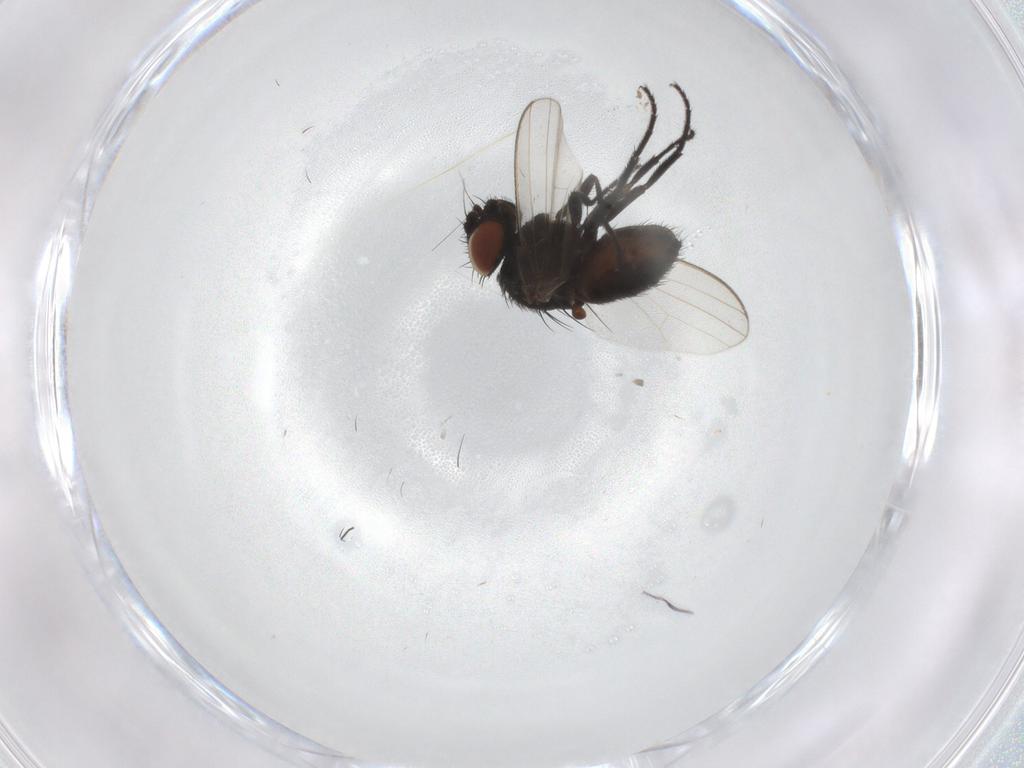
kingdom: Animalia
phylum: Arthropoda
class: Insecta
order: Diptera
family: Milichiidae
